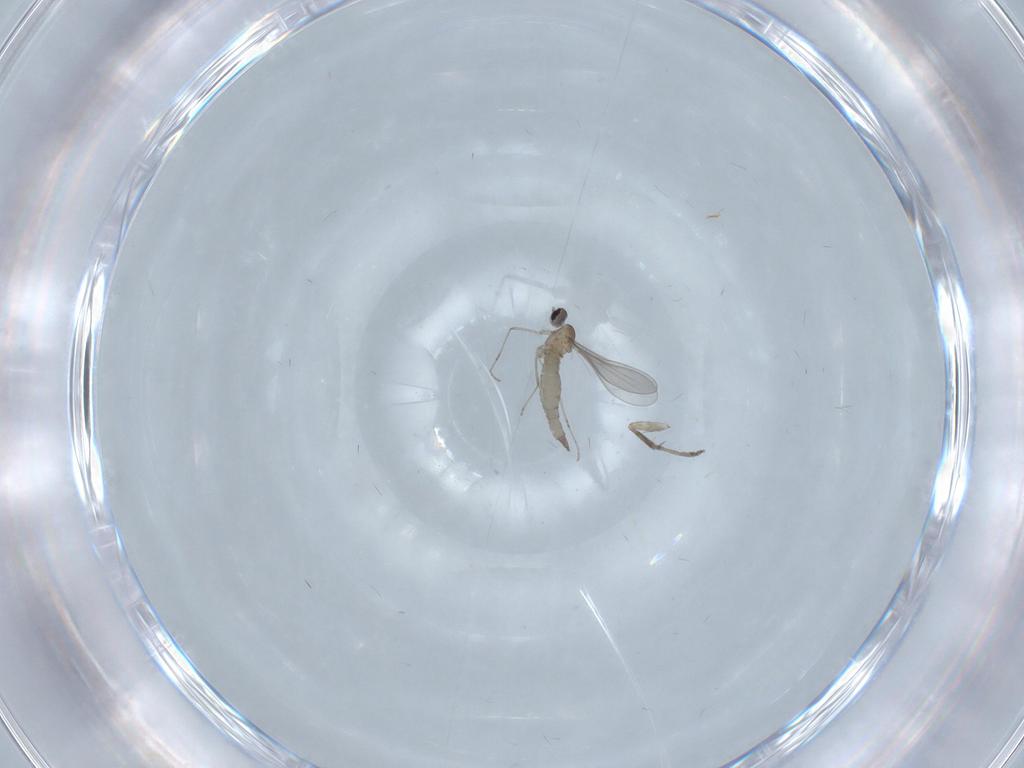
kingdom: Animalia
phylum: Arthropoda
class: Insecta
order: Diptera
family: Psychodidae
